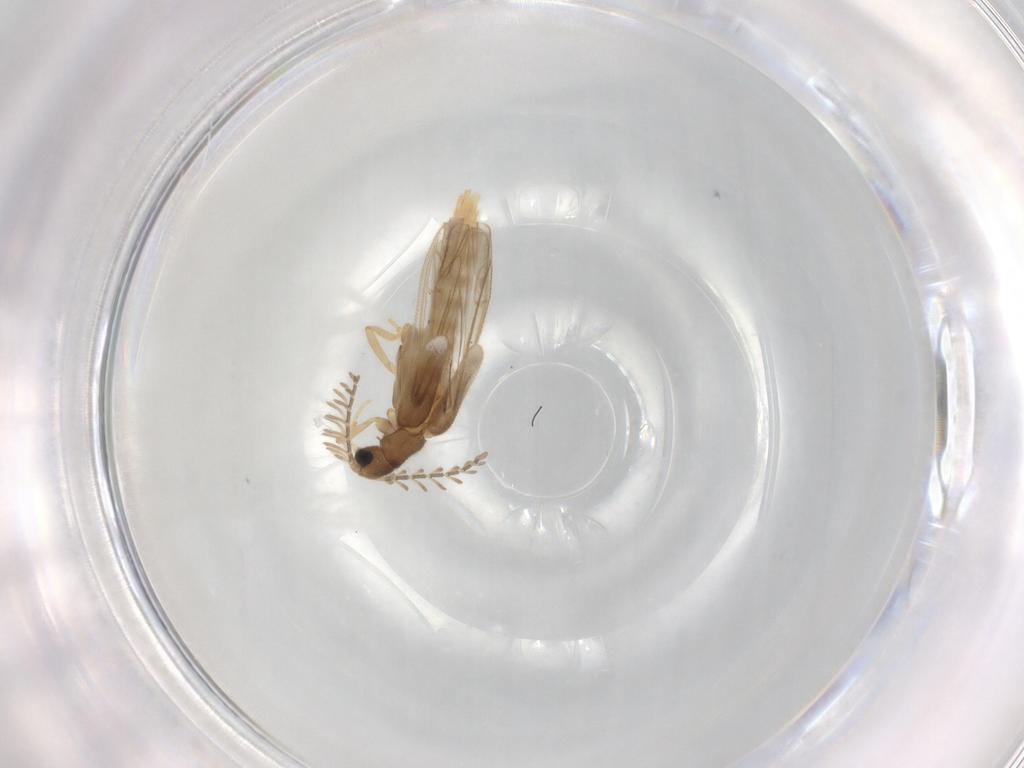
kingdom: Animalia
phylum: Arthropoda
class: Insecta
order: Coleoptera
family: Phengodidae
